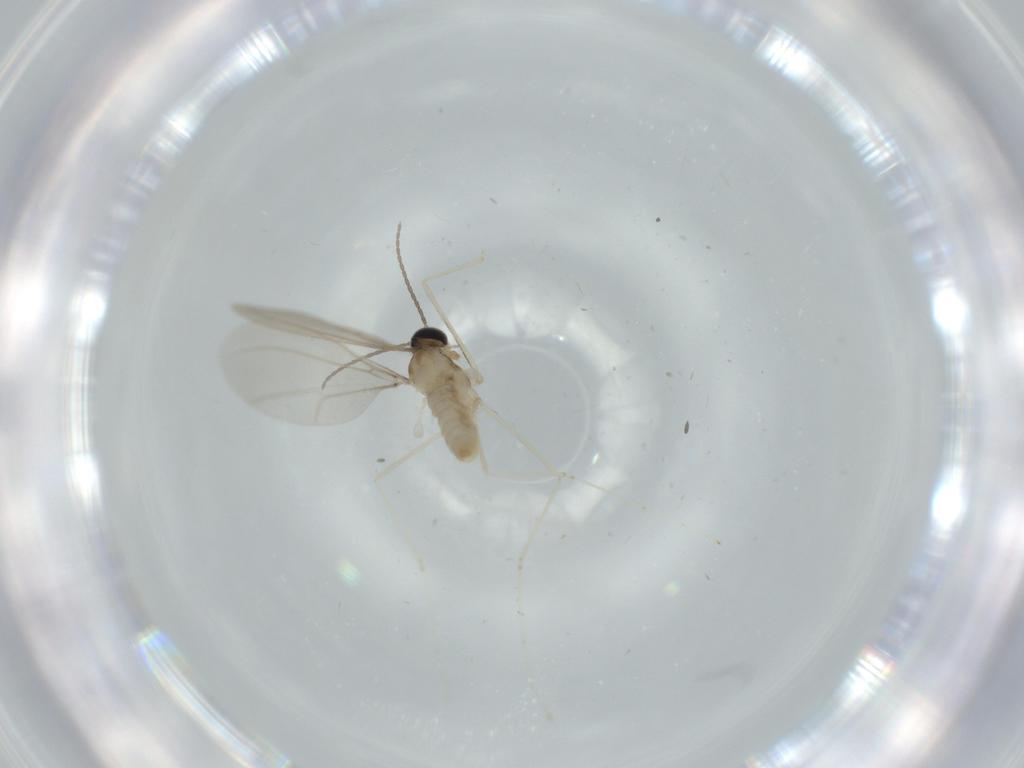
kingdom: Animalia
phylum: Arthropoda
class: Insecta
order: Diptera
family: Cecidomyiidae
